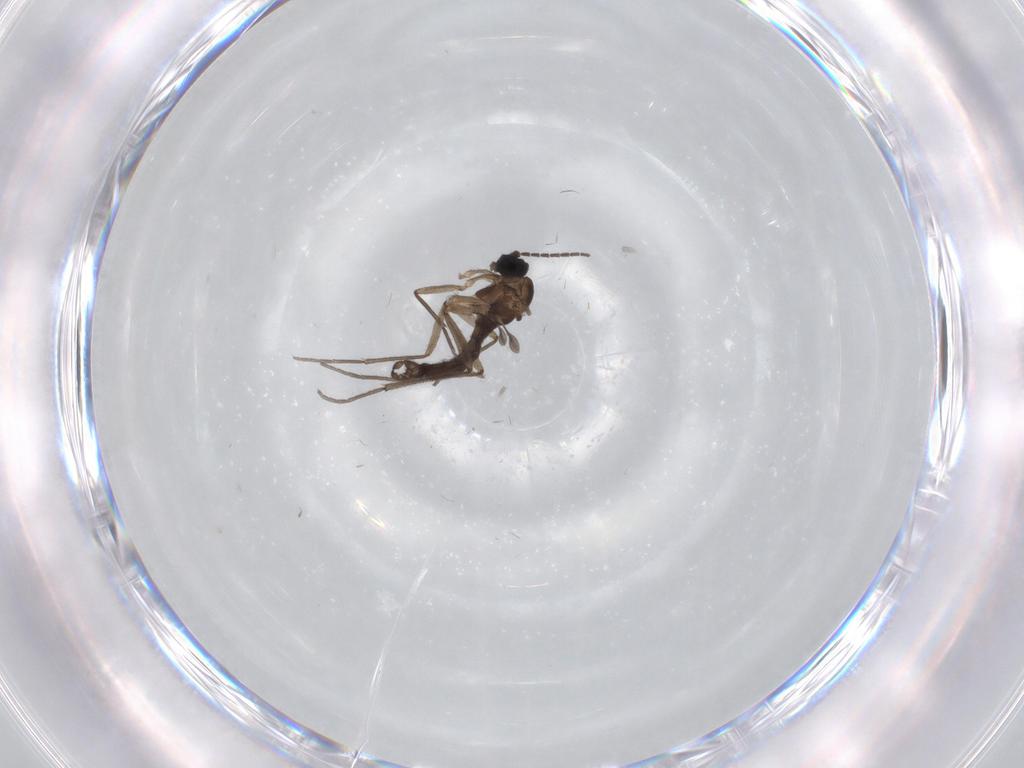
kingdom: Animalia
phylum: Arthropoda
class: Insecta
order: Diptera
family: Sciaridae
